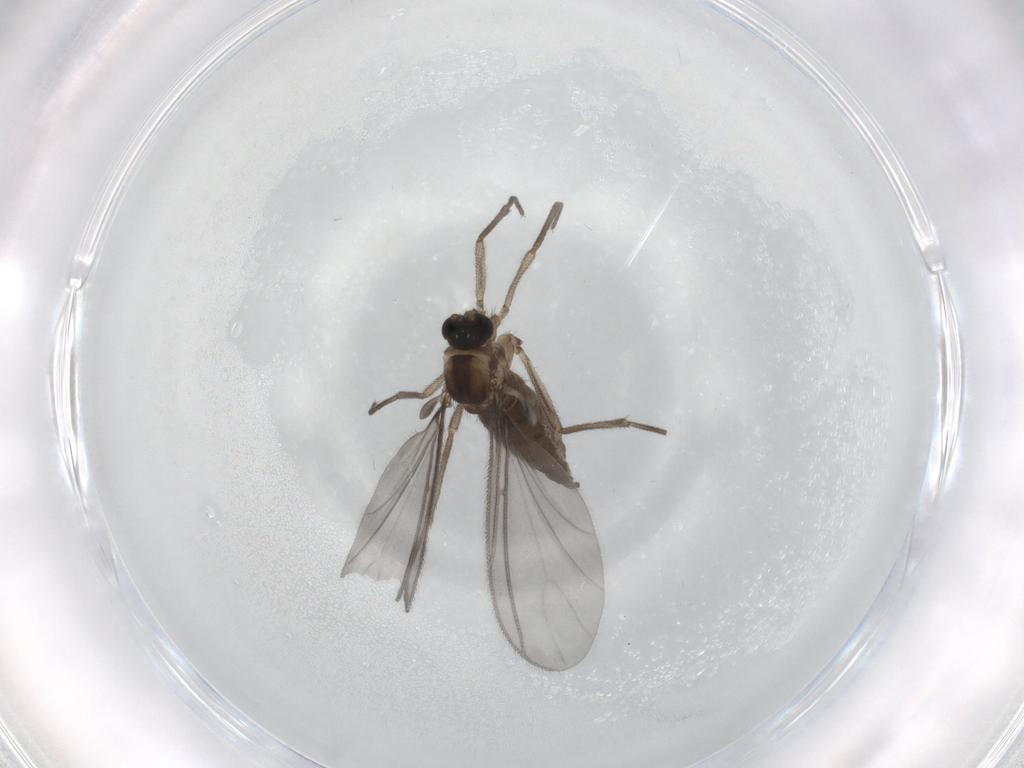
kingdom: Animalia
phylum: Arthropoda
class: Insecta
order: Diptera
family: Sciaridae
